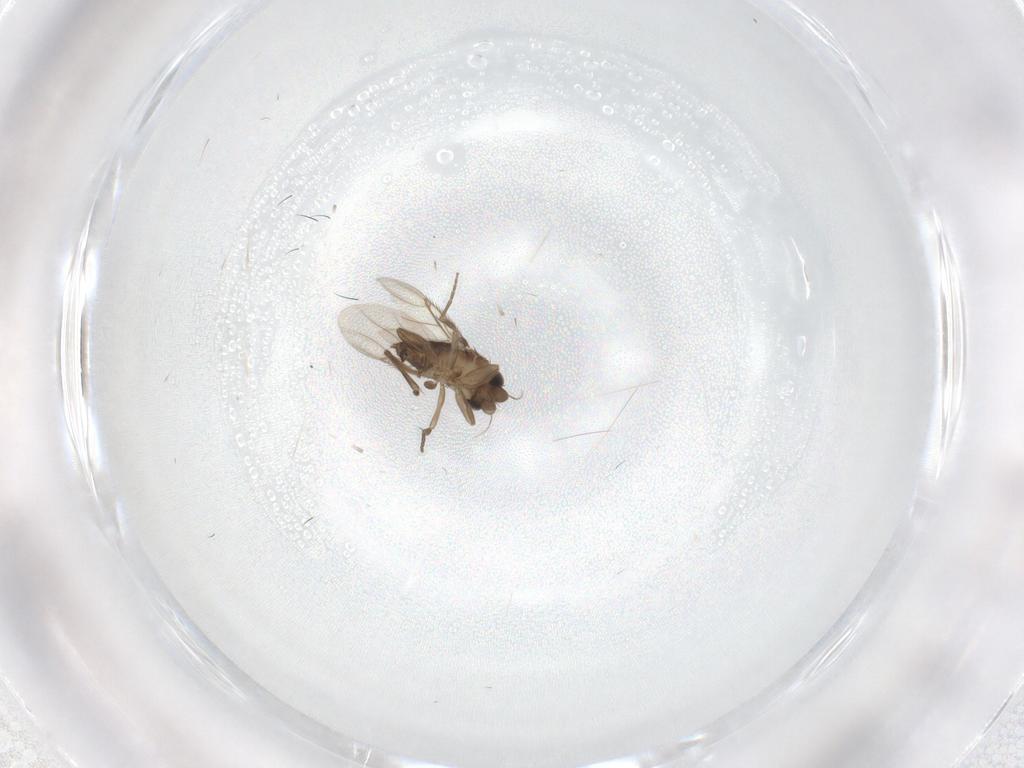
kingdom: Animalia
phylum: Arthropoda
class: Insecta
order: Diptera
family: Phoridae
